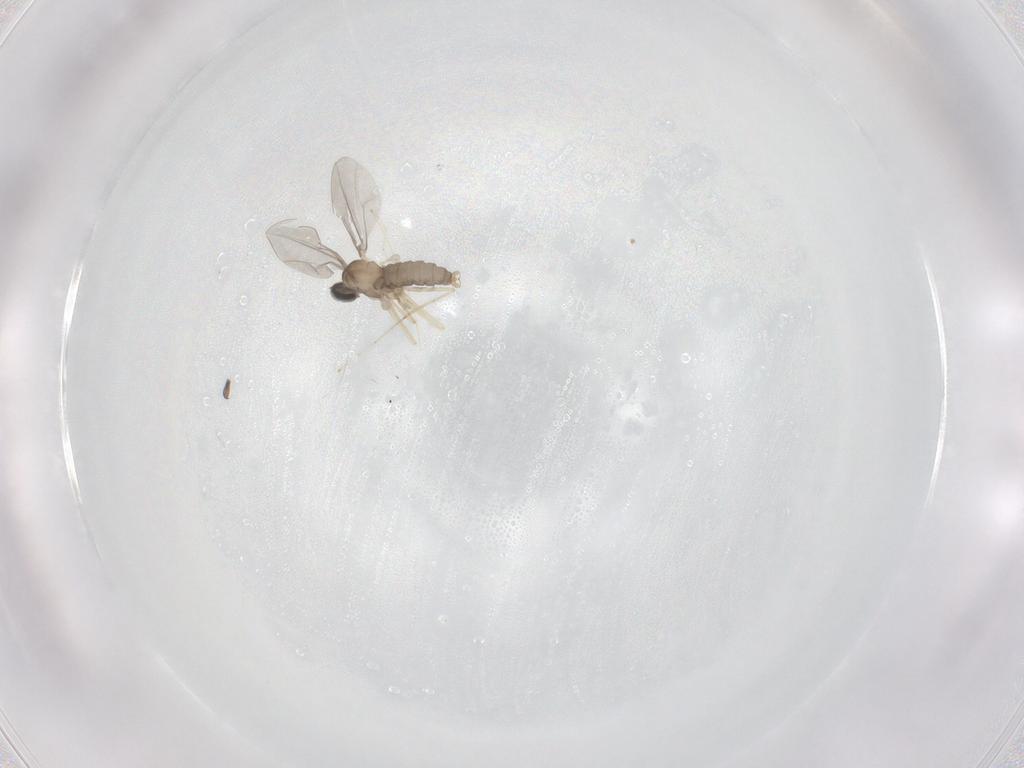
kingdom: Animalia
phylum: Arthropoda
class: Insecta
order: Diptera
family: Cecidomyiidae
